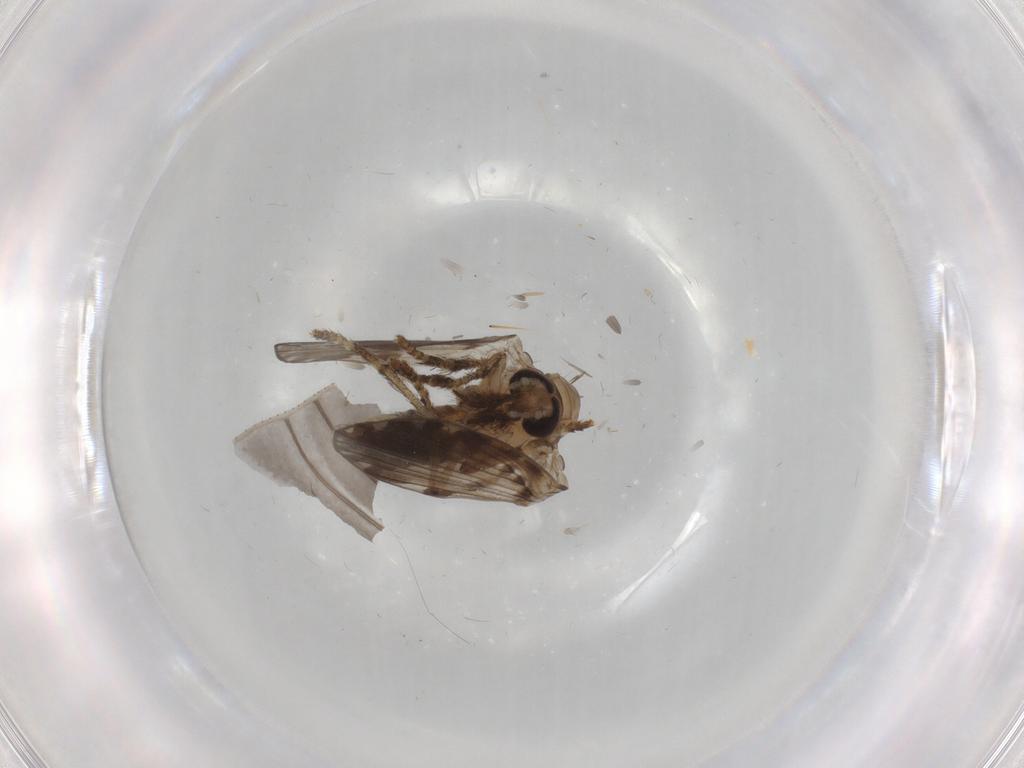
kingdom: Animalia
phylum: Arthropoda
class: Insecta
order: Diptera
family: Psychodidae
